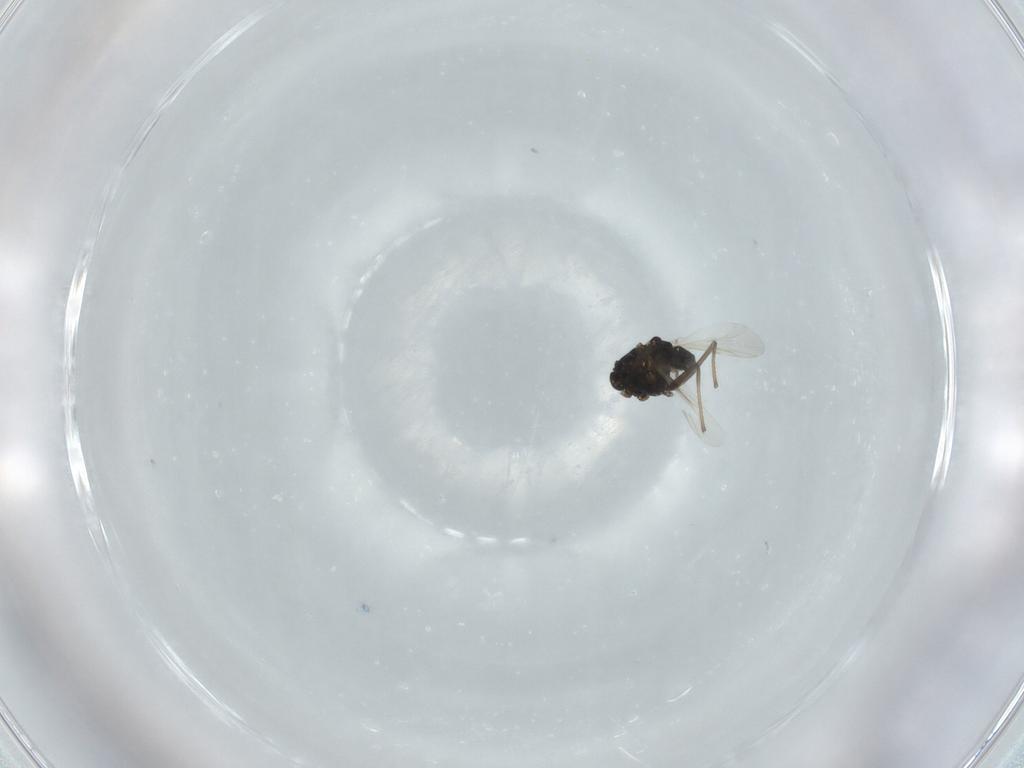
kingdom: Animalia
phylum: Arthropoda
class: Insecta
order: Diptera
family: Chironomidae
